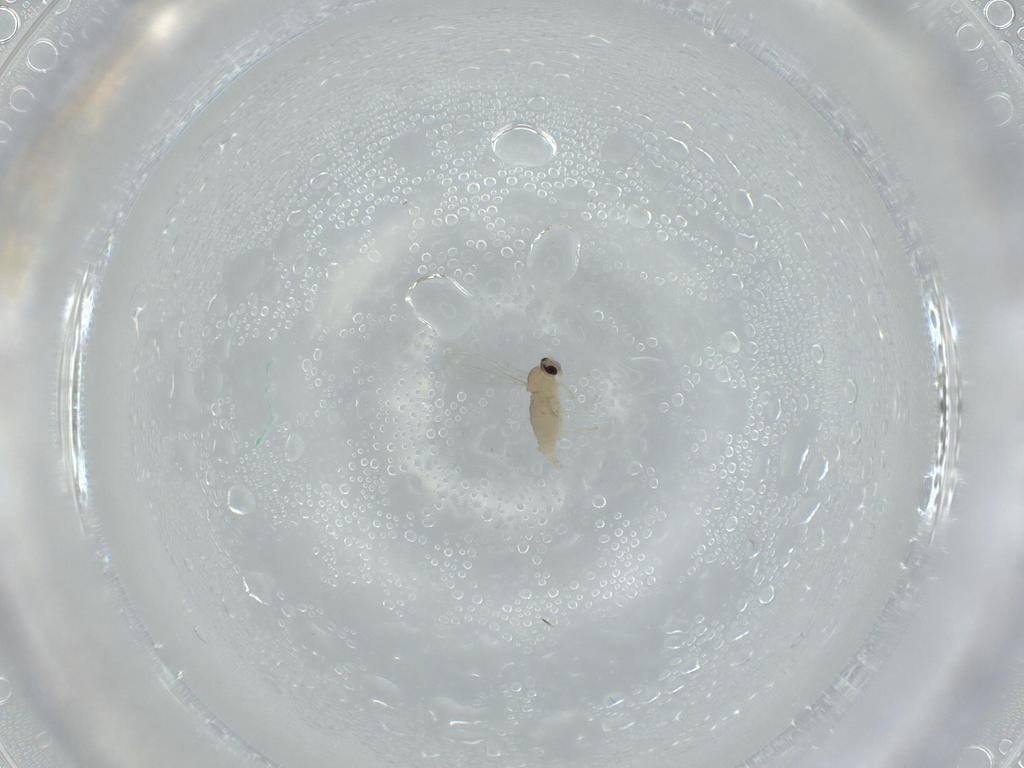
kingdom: Animalia
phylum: Arthropoda
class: Insecta
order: Diptera
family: Cecidomyiidae
